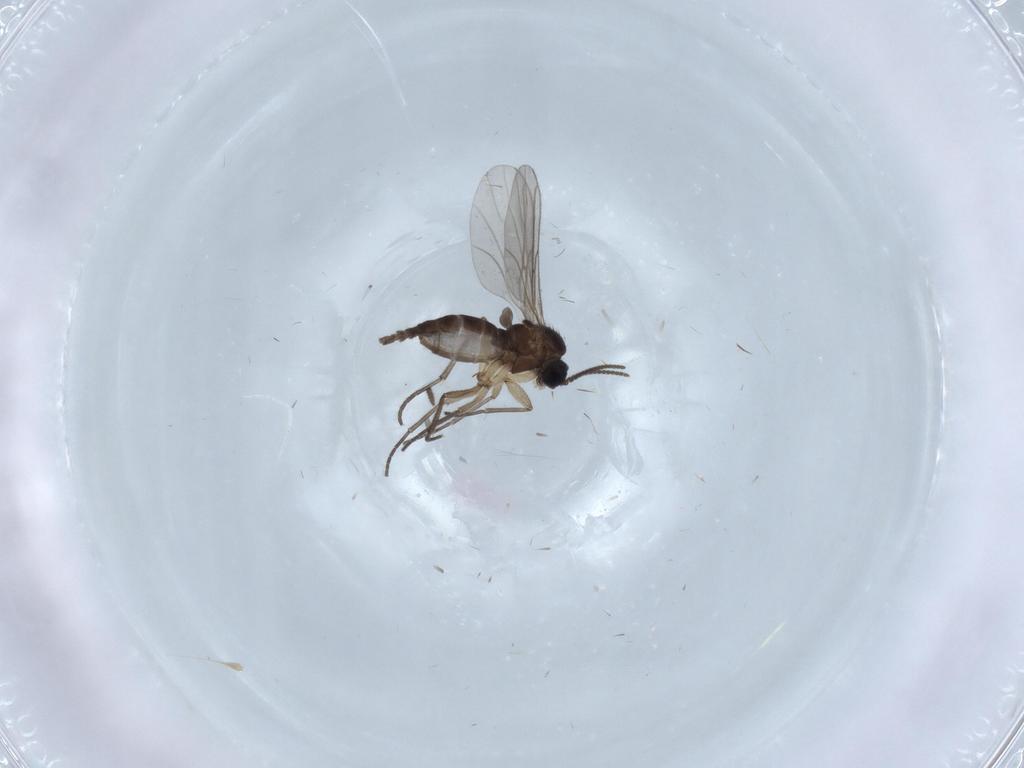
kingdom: Animalia
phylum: Arthropoda
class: Insecta
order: Diptera
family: Sciaridae
